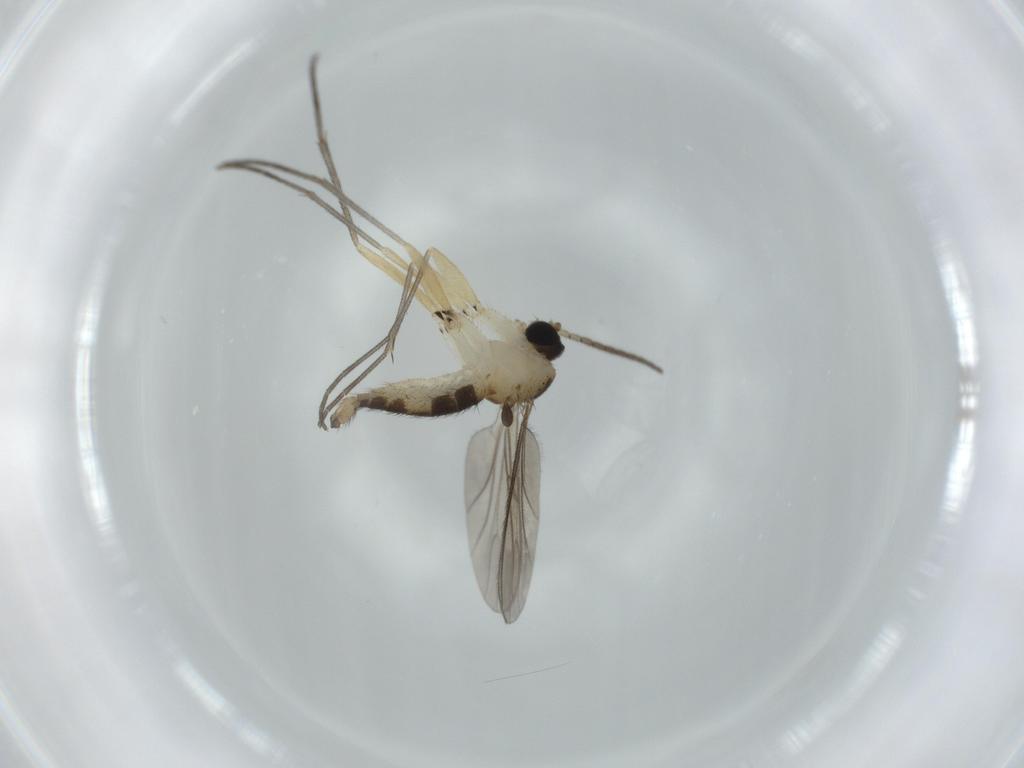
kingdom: Animalia
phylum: Arthropoda
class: Insecta
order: Diptera
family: Sciaridae
